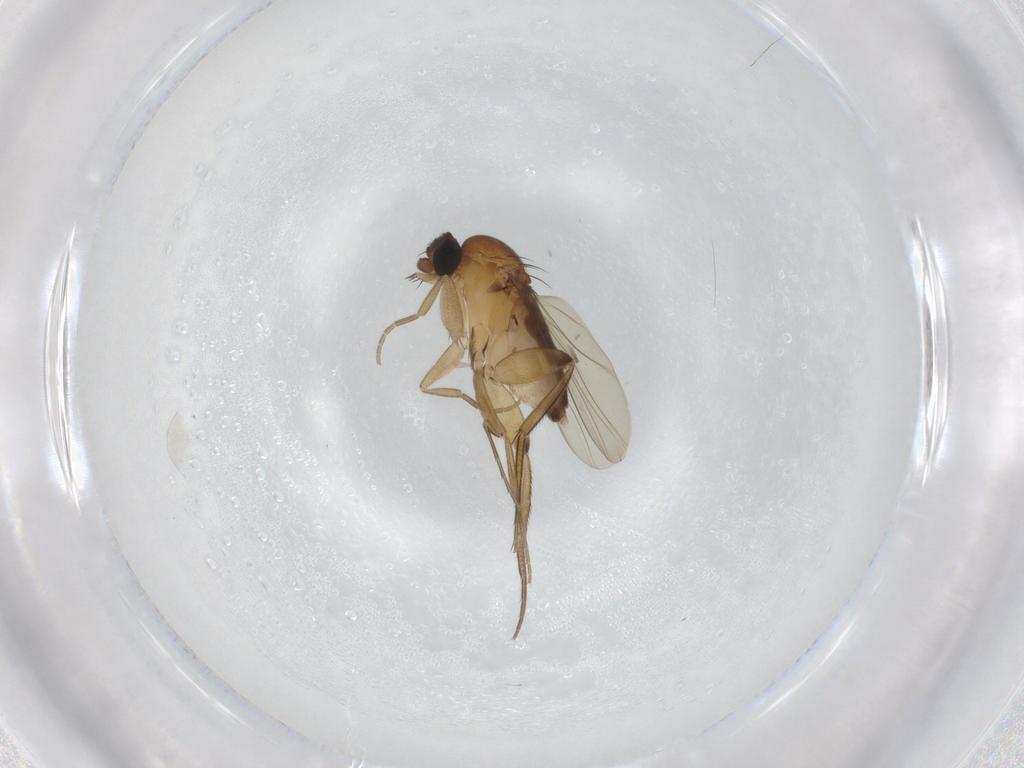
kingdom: Animalia
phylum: Arthropoda
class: Insecta
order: Diptera
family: Phoridae
